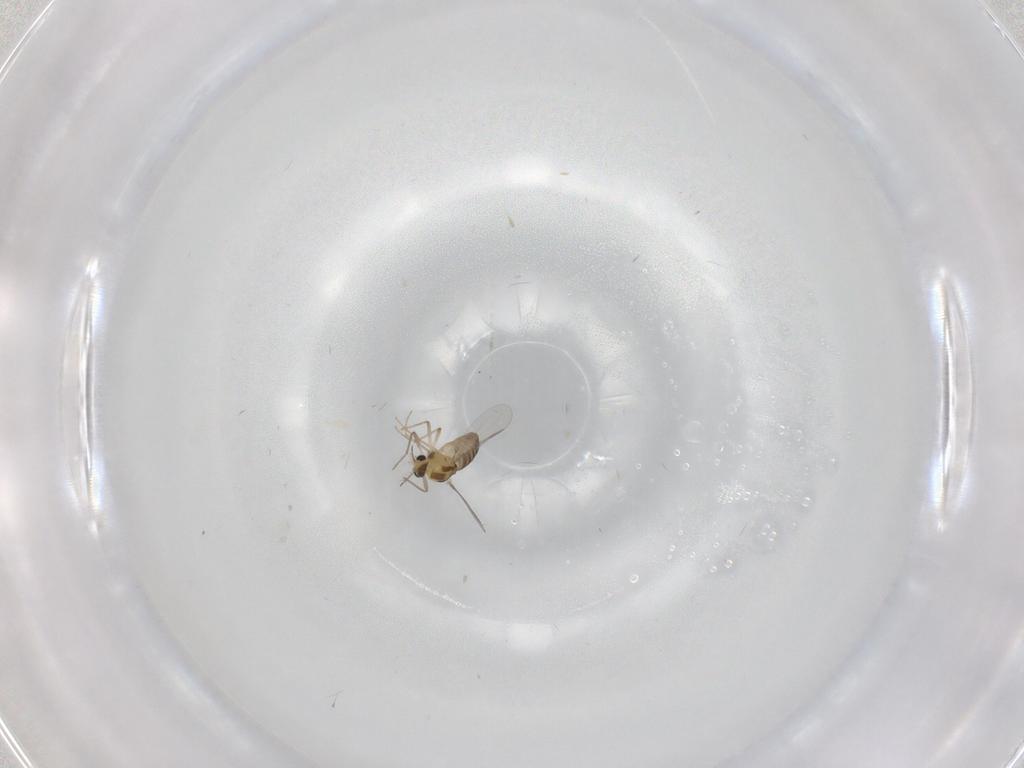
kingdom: Animalia
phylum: Arthropoda
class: Insecta
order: Diptera
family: Chironomidae
